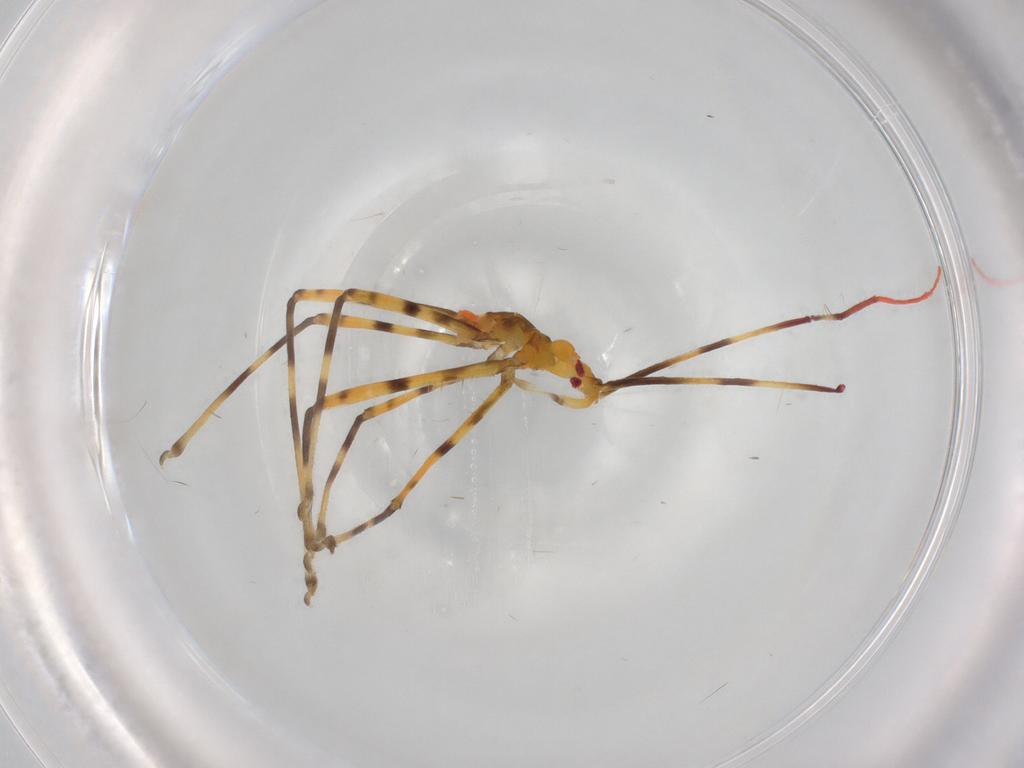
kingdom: Animalia
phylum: Arthropoda
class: Insecta
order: Hemiptera
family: Reduviidae
